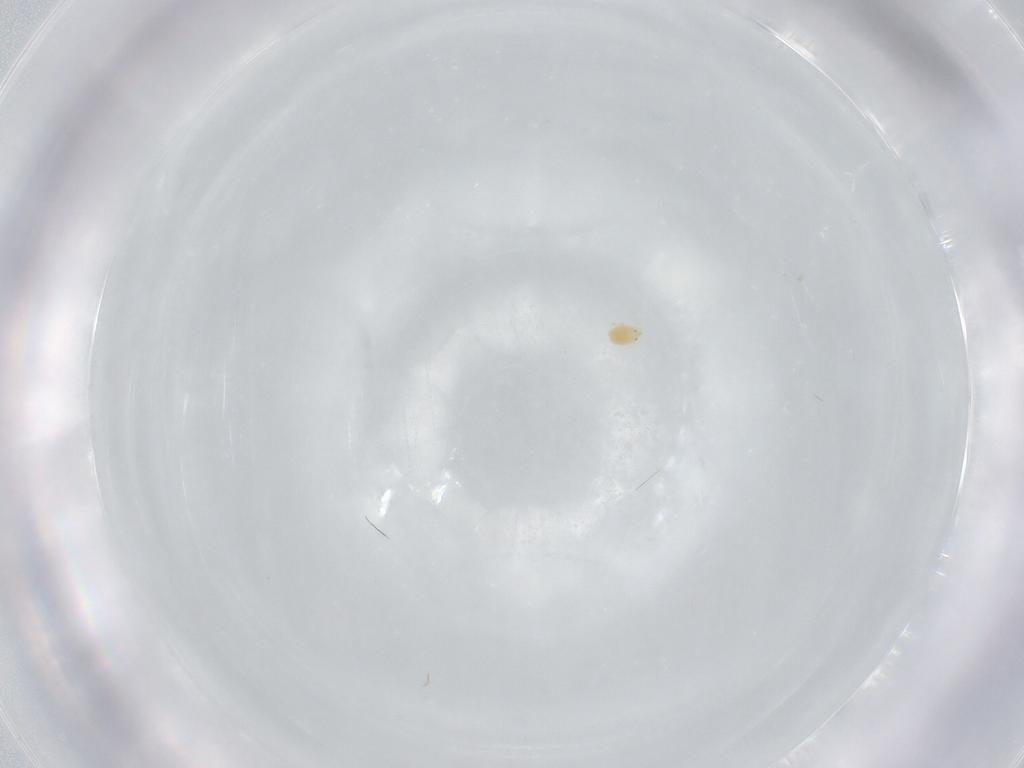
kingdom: Animalia
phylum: Arthropoda
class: Arachnida
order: Trombidiformes
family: Torrenticolidae
